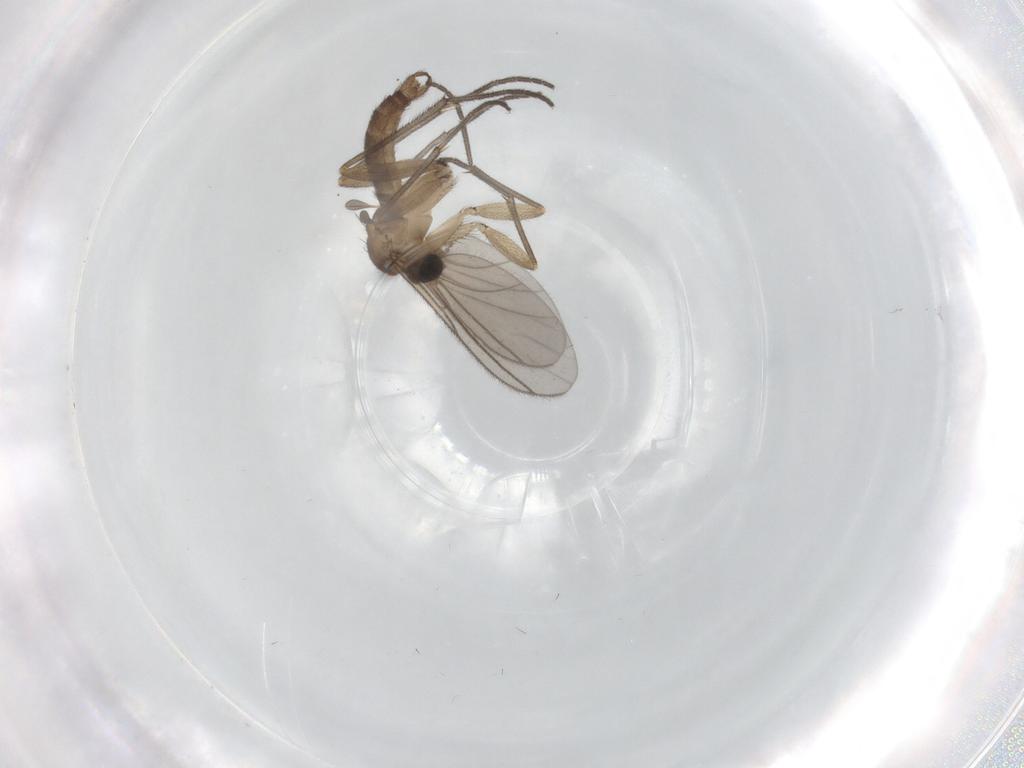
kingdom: Animalia
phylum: Arthropoda
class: Insecta
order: Diptera
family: Sciaridae
